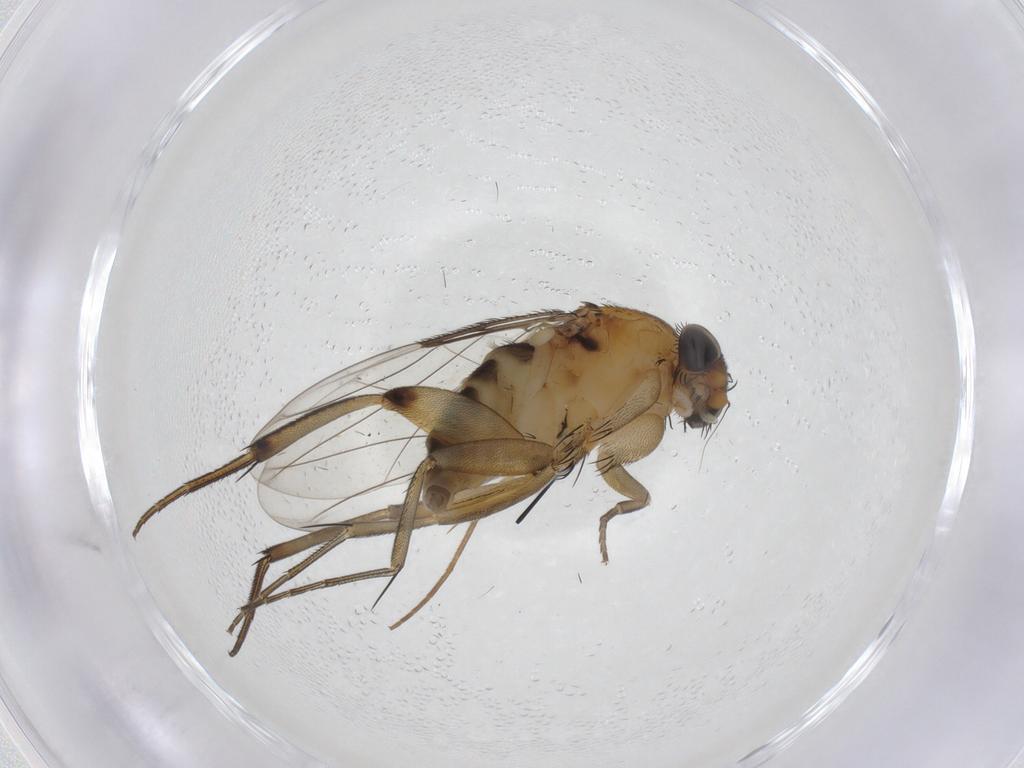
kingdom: Animalia
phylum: Arthropoda
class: Insecta
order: Diptera
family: Phoridae
